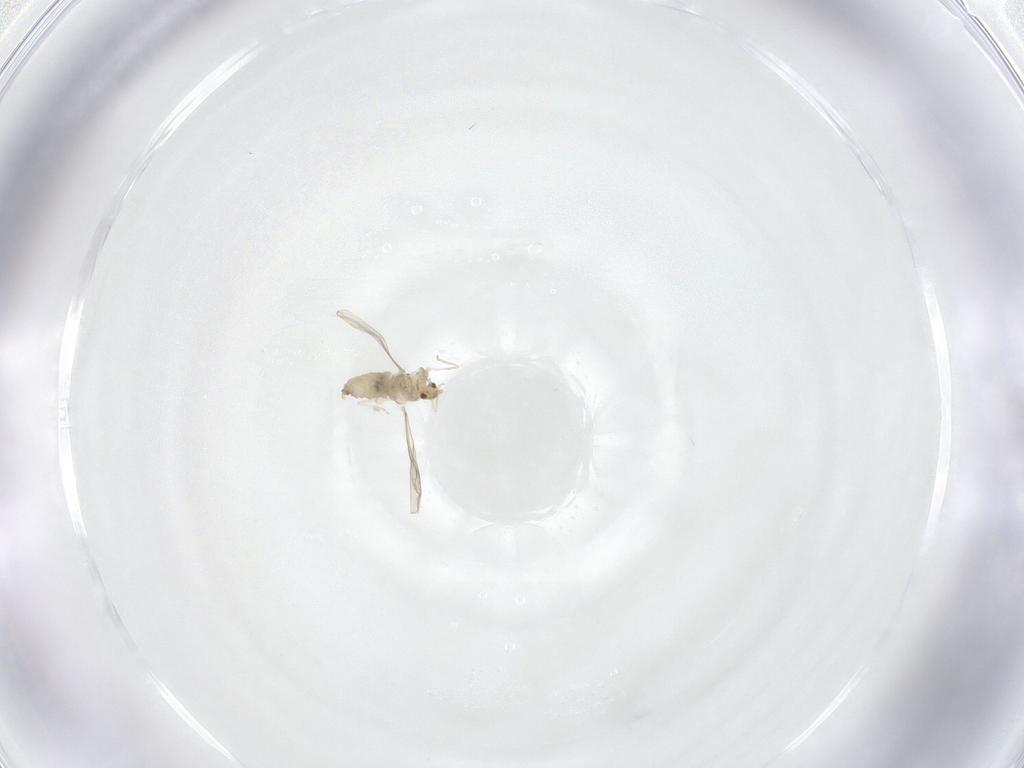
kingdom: Animalia
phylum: Arthropoda
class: Insecta
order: Diptera
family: Cecidomyiidae
